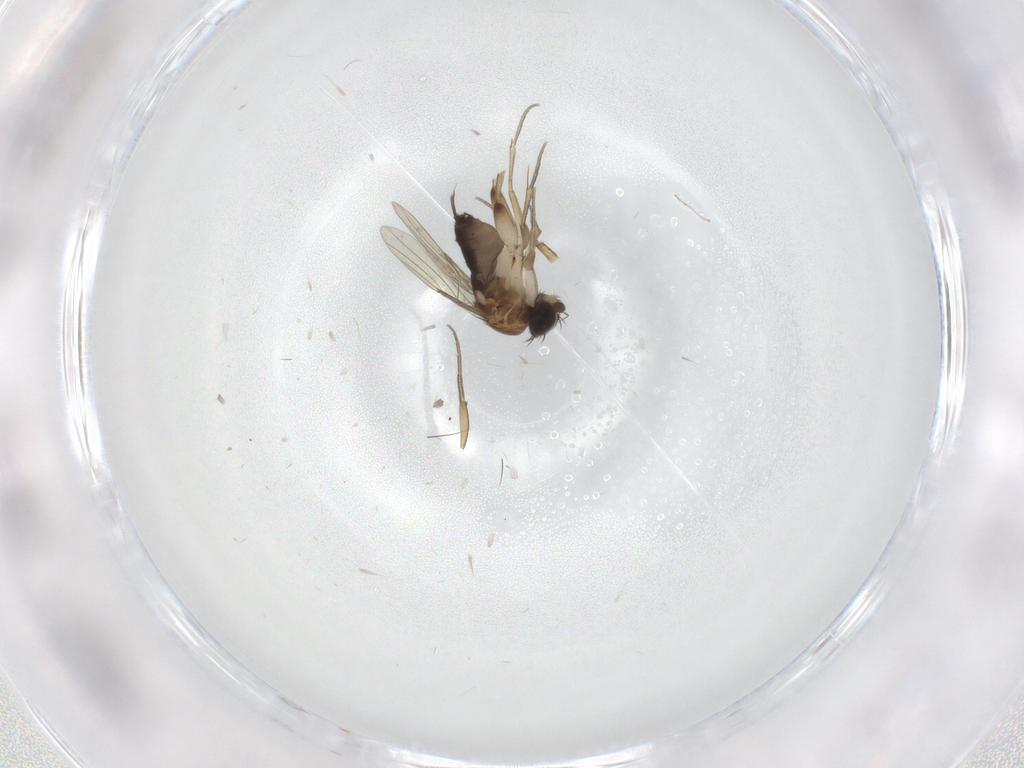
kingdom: Animalia
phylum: Arthropoda
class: Insecta
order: Diptera
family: Phoridae
